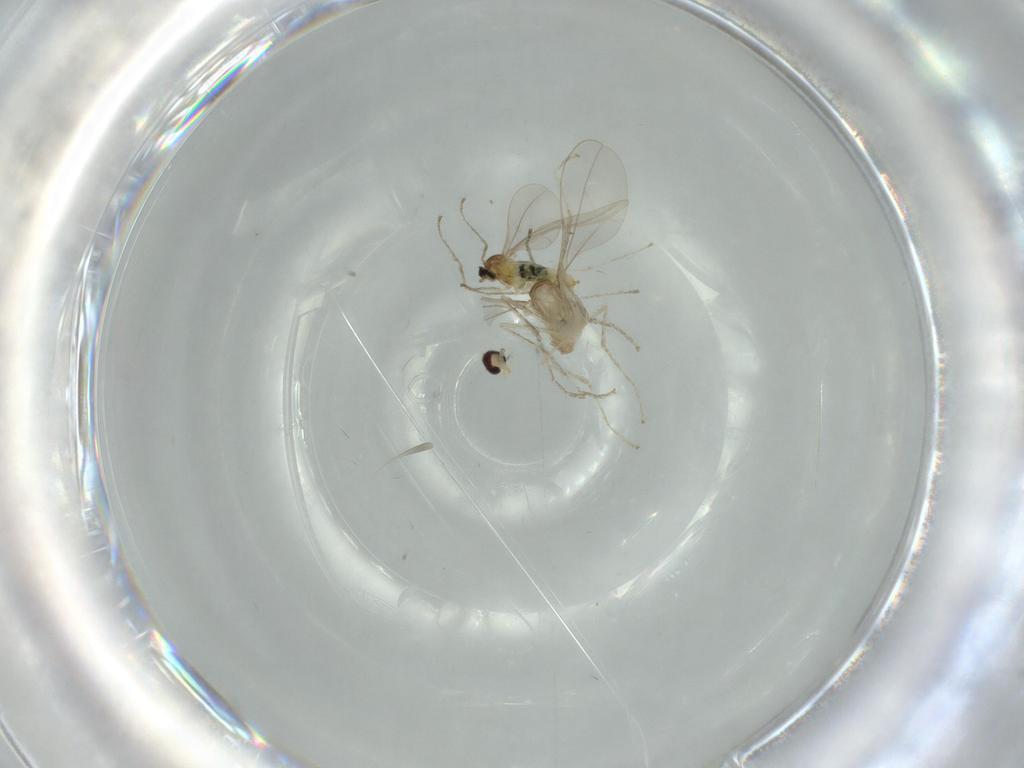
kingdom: Animalia
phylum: Arthropoda
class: Insecta
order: Diptera
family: Cecidomyiidae
